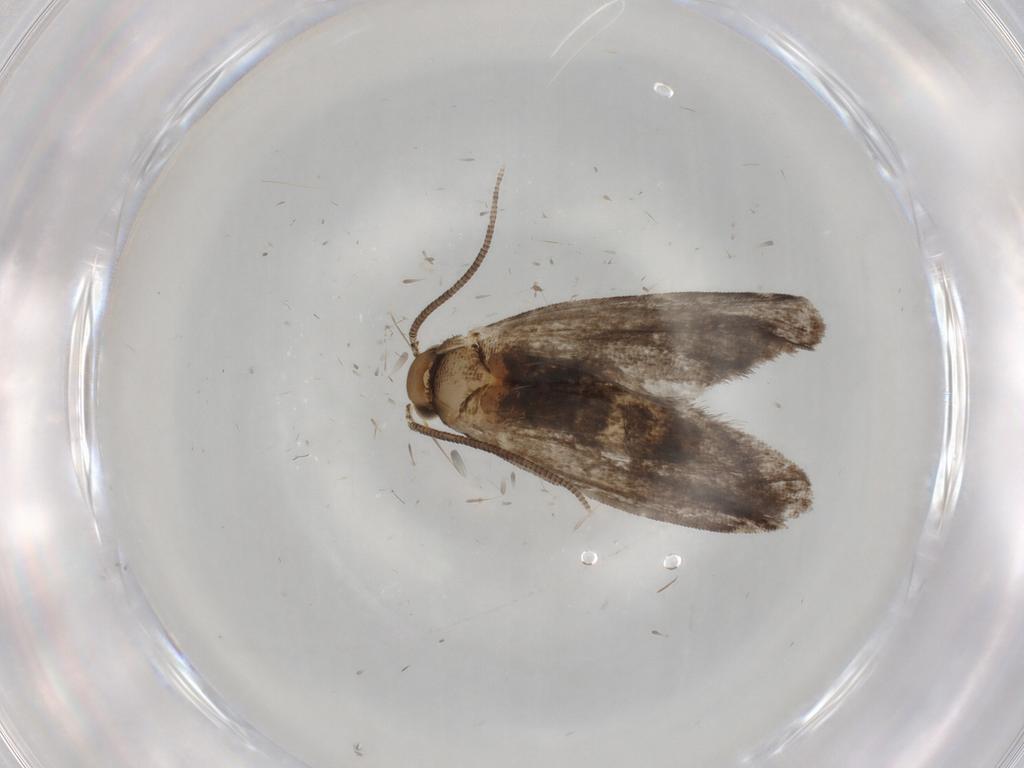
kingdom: Animalia
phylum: Arthropoda
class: Insecta
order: Lepidoptera
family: Dryadaulidae
